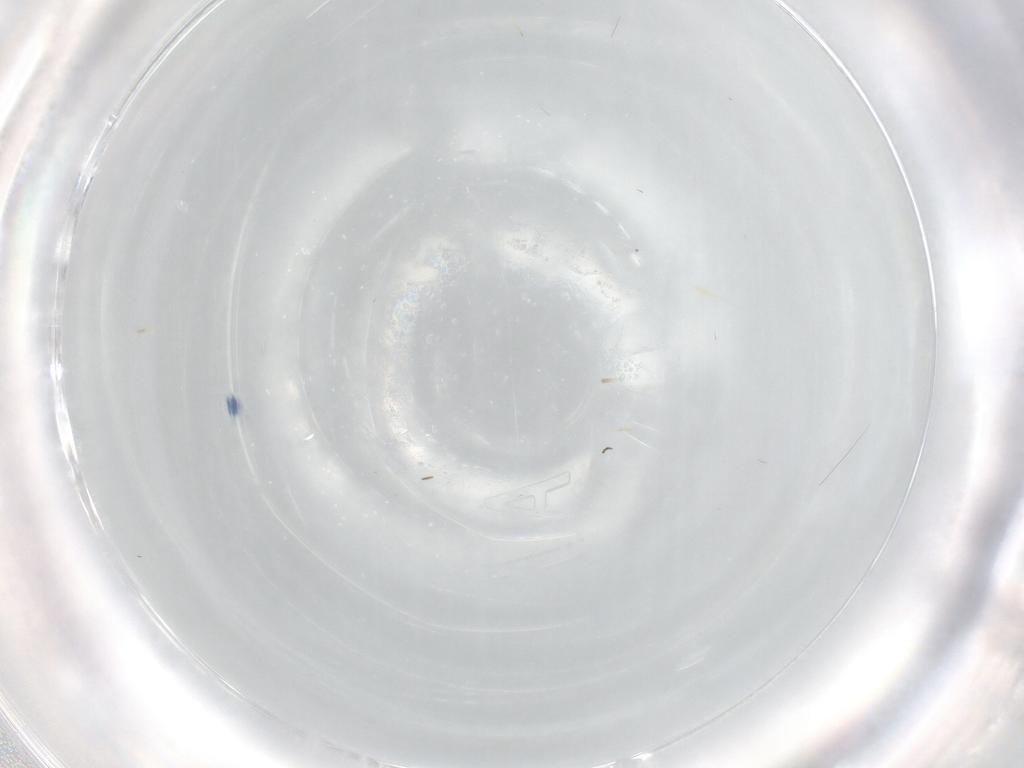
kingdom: Animalia
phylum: Arthropoda
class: Insecta
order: Diptera
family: Sciaridae
